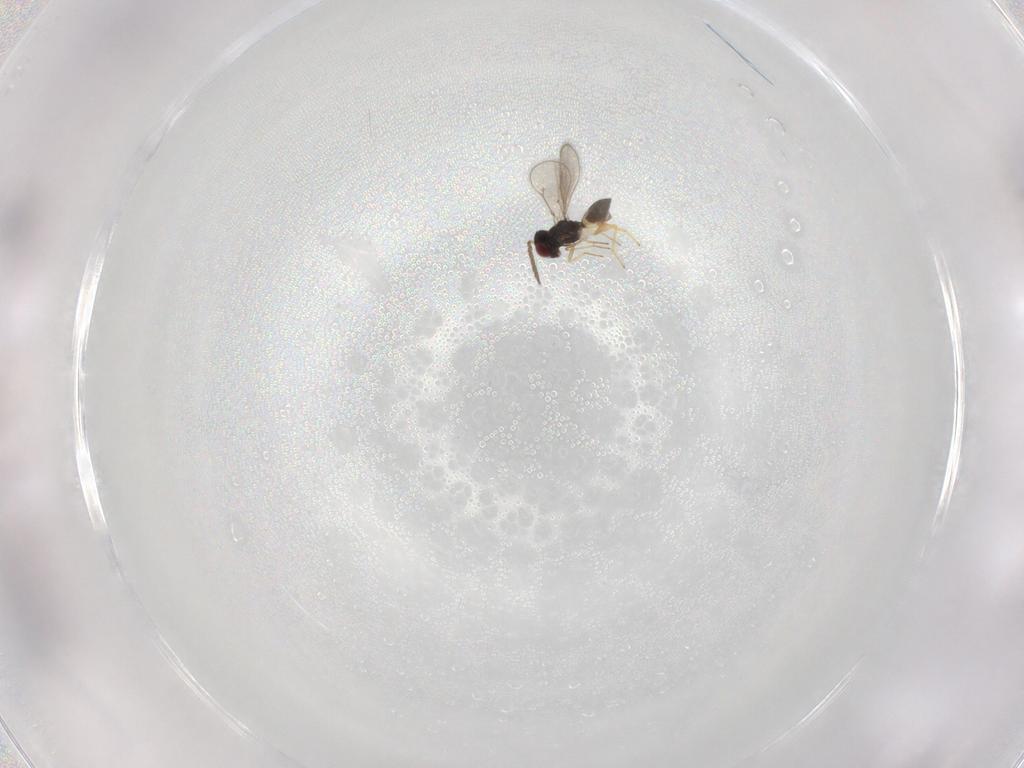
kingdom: Animalia
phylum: Arthropoda
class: Insecta
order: Hymenoptera
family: Eulophidae
